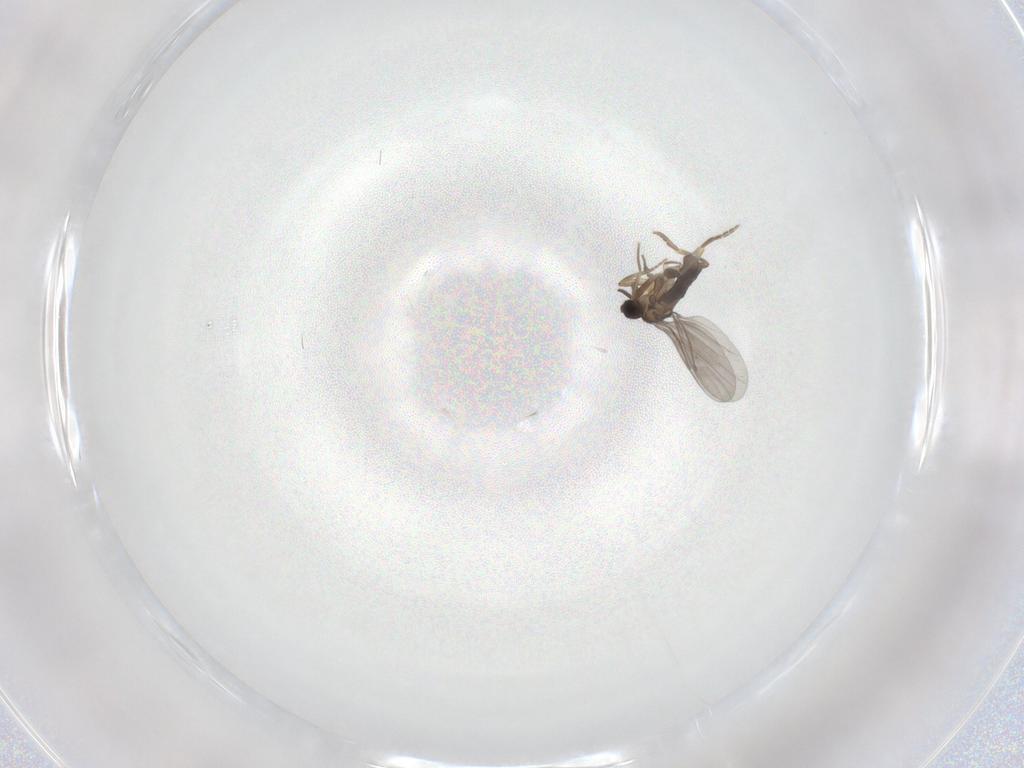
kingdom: Animalia
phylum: Arthropoda
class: Insecta
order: Diptera
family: Sphaeroceridae
